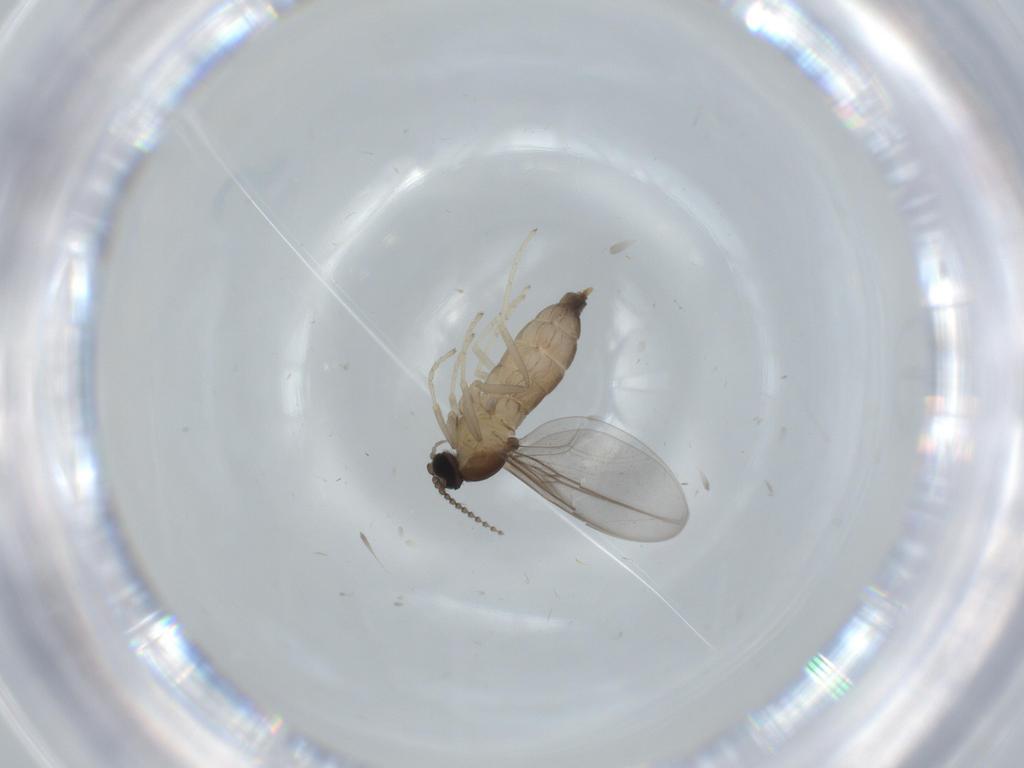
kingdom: Animalia
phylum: Arthropoda
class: Insecta
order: Diptera
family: Cecidomyiidae
